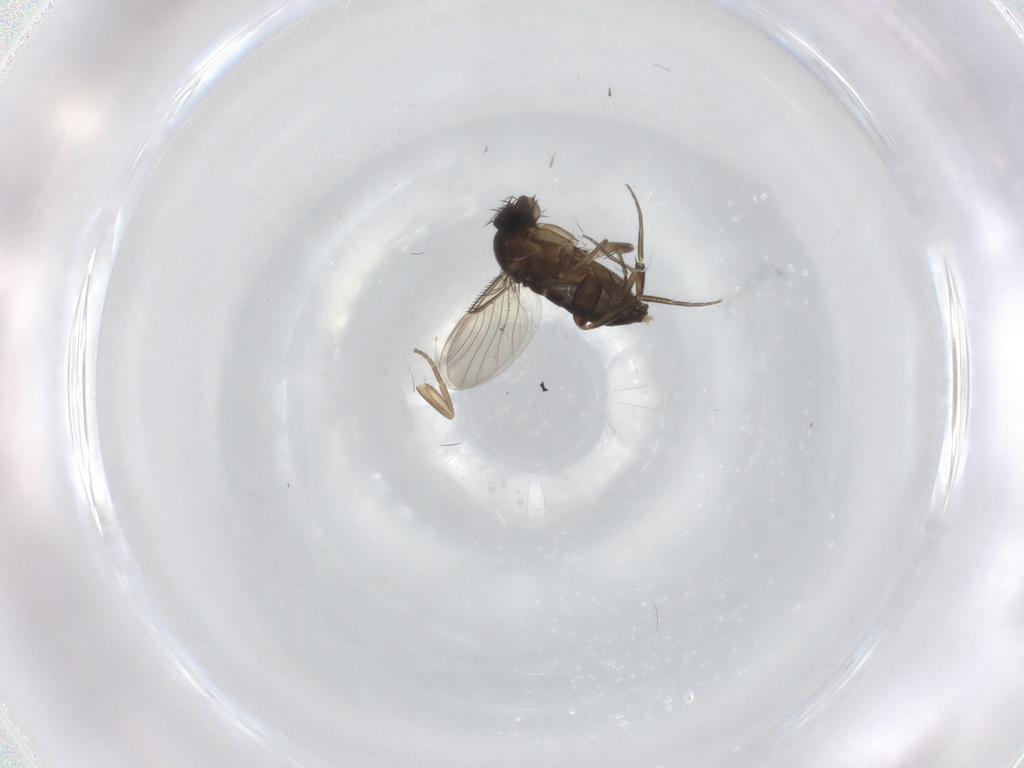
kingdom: Animalia
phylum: Arthropoda
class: Insecta
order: Diptera
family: Phoridae
